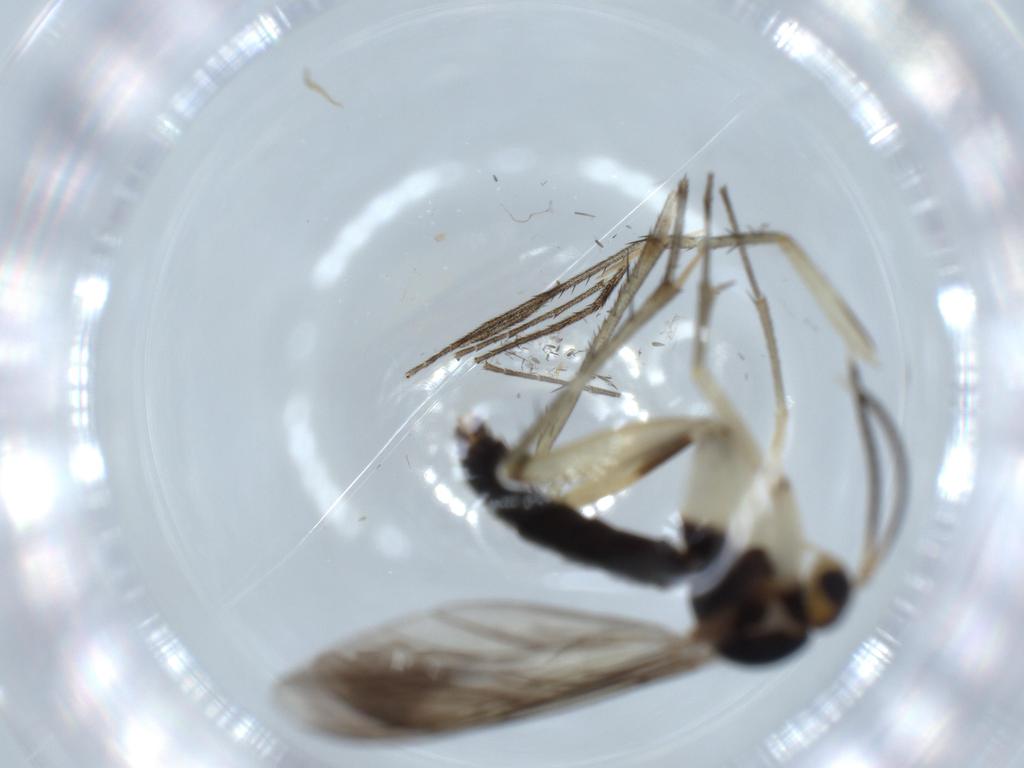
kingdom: Animalia
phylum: Arthropoda
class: Insecta
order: Diptera
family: Mycetophilidae
